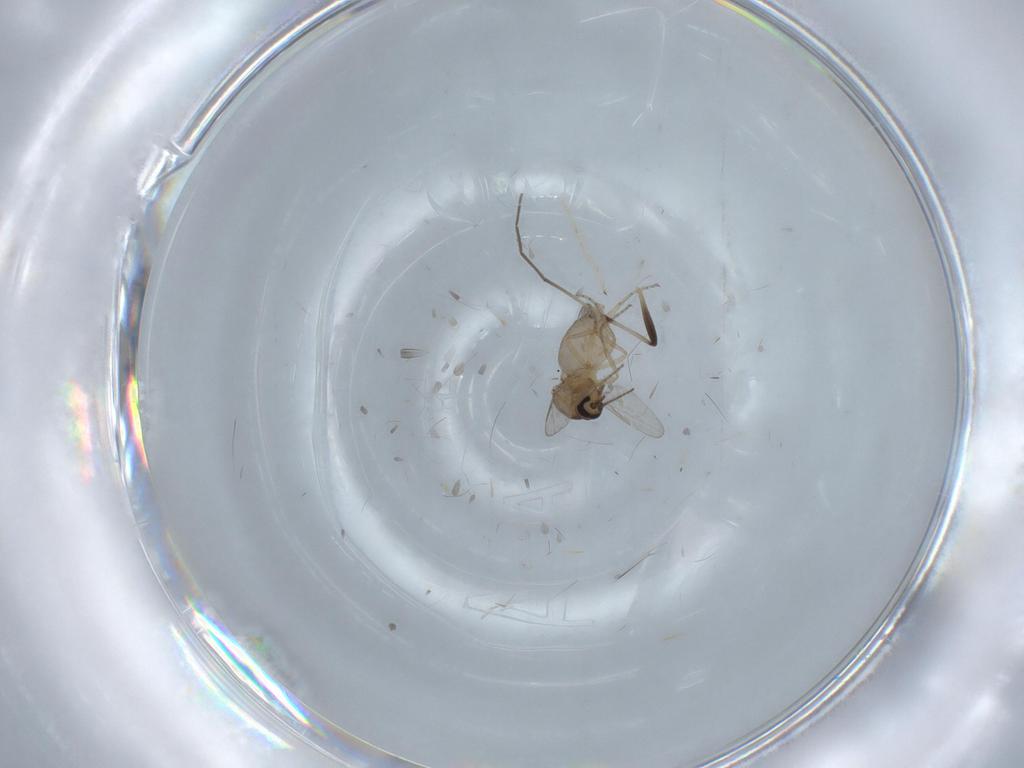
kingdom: Animalia
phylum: Arthropoda
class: Insecta
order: Diptera
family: Chironomidae
